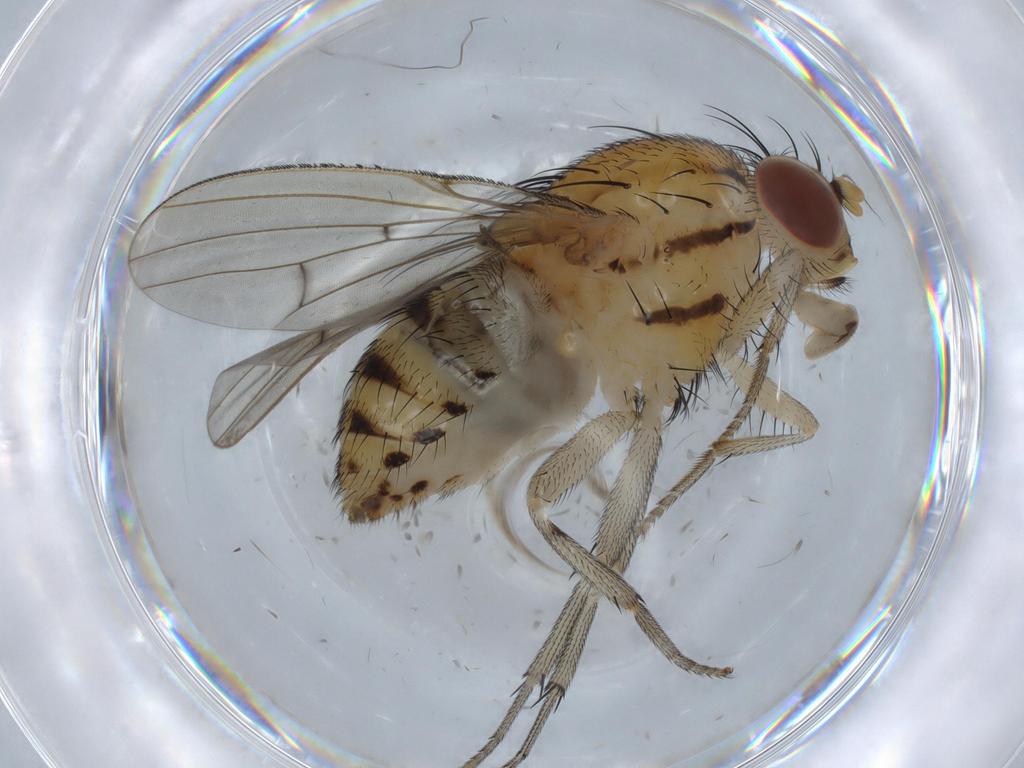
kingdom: Animalia
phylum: Arthropoda
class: Insecta
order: Diptera
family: Lauxaniidae
